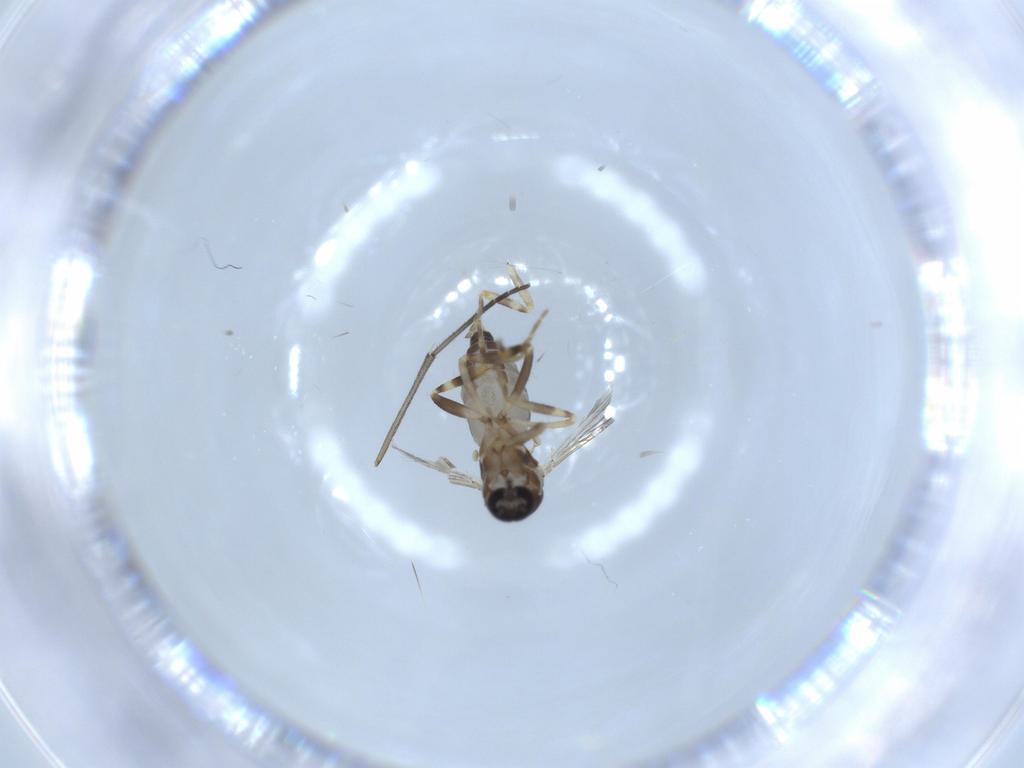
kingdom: Animalia
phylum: Arthropoda
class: Insecta
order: Diptera
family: Ceratopogonidae
